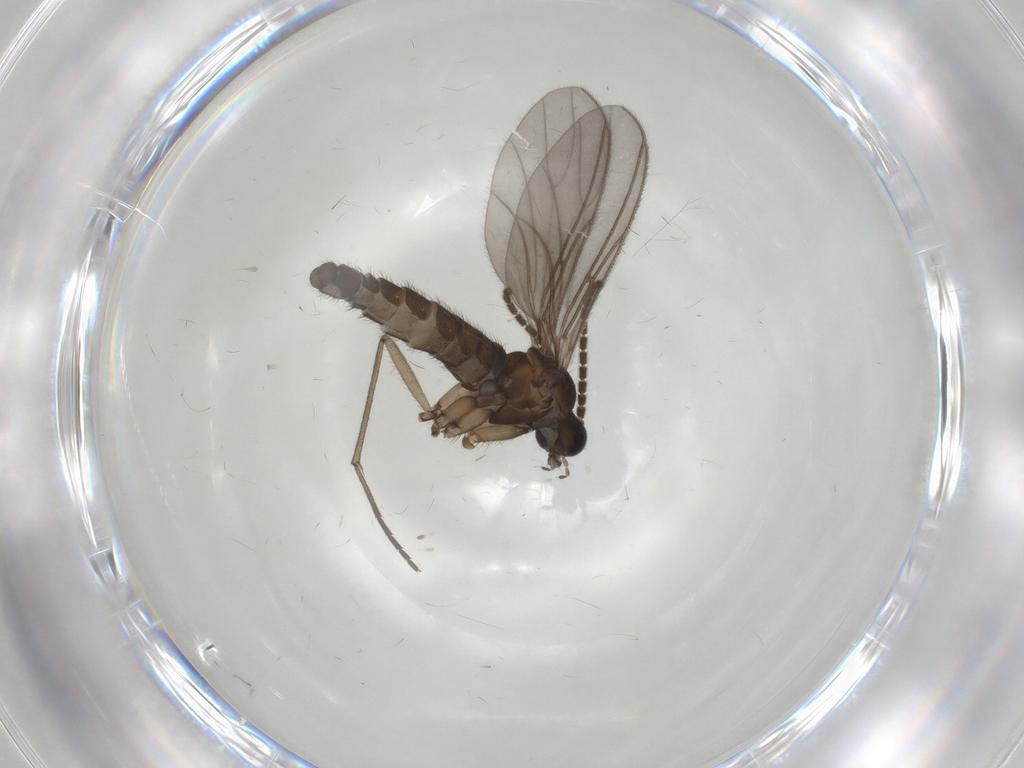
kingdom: Animalia
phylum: Arthropoda
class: Insecta
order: Diptera
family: Sciaridae
